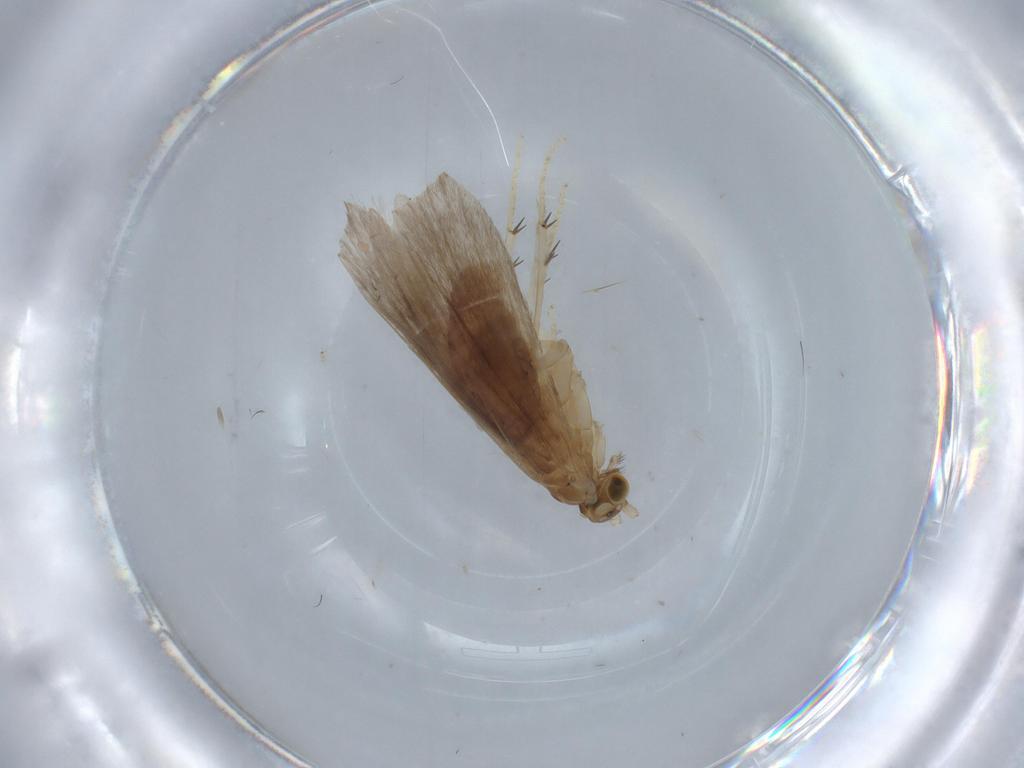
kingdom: Animalia
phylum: Arthropoda
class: Insecta
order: Trichoptera
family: Glossosomatidae
